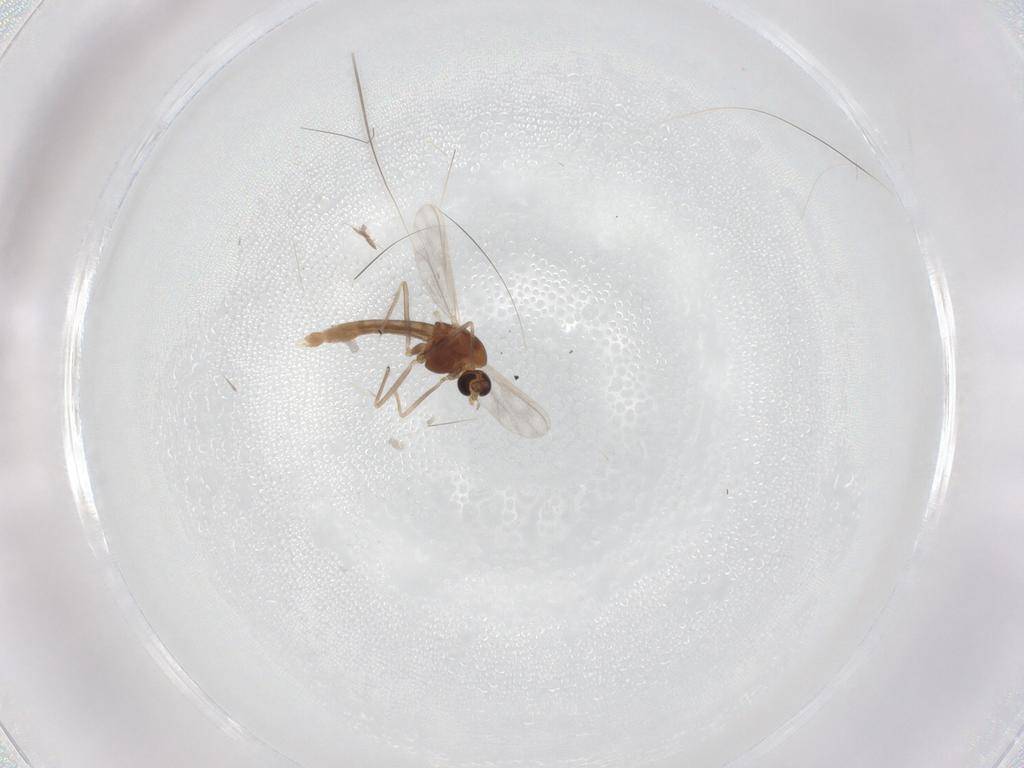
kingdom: Animalia
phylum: Arthropoda
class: Insecta
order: Diptera
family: Chironomidae
